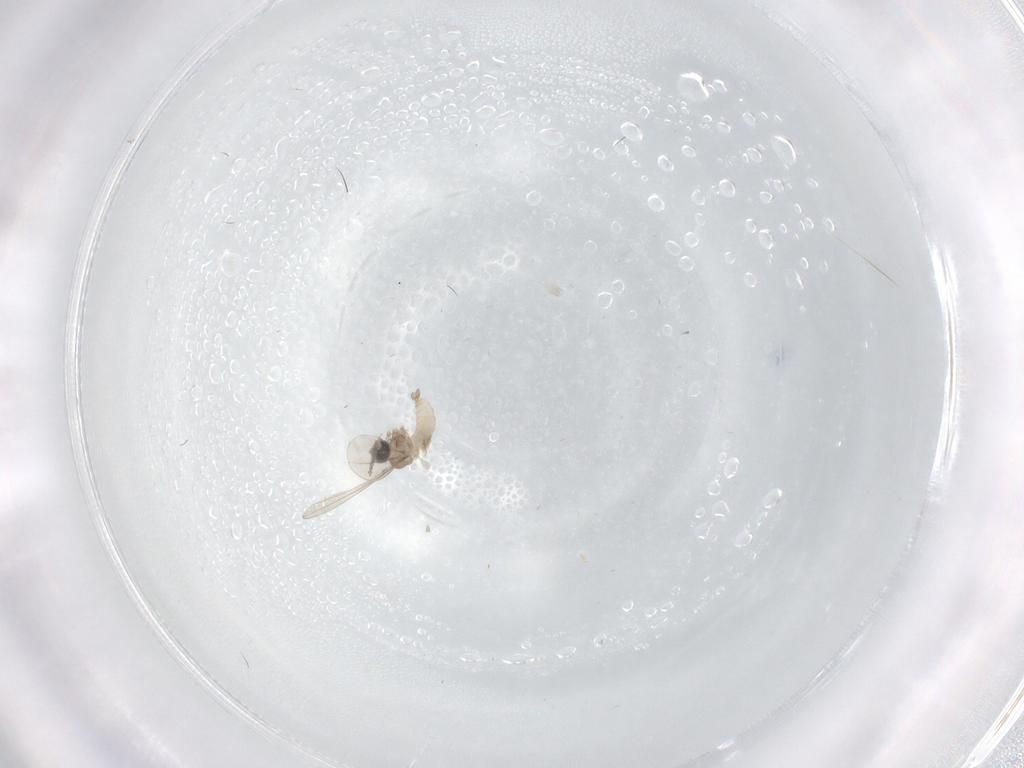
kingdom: Animalia
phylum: Arthropoda
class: Insecta
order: Diptera
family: Sciaridae
